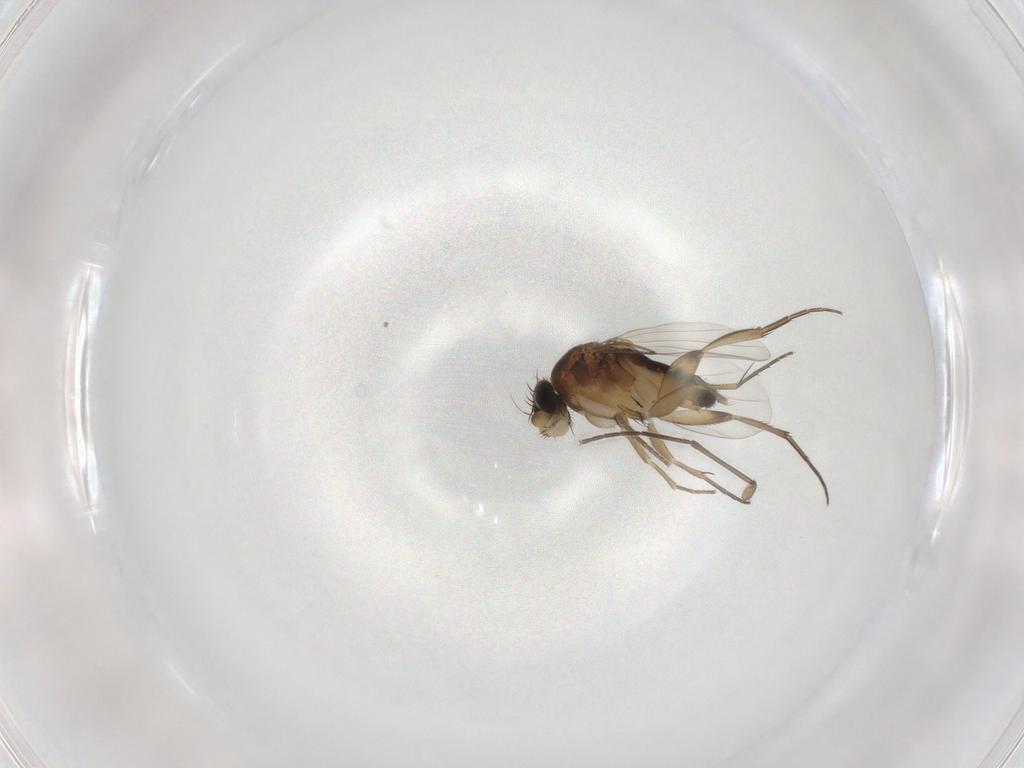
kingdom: Animalia
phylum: Arthropoda
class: Insecta
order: Diptera
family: Phoridae
